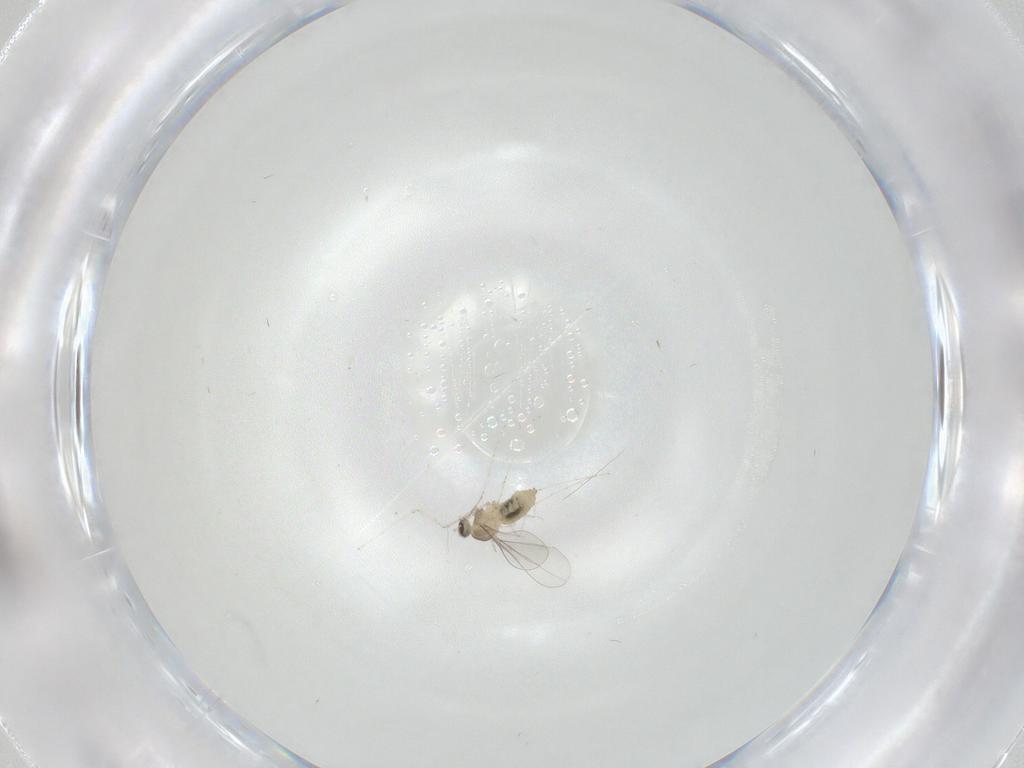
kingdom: Animalia
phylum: Arthropoda
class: Insecta
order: Diptera
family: Cecidomyiidae
